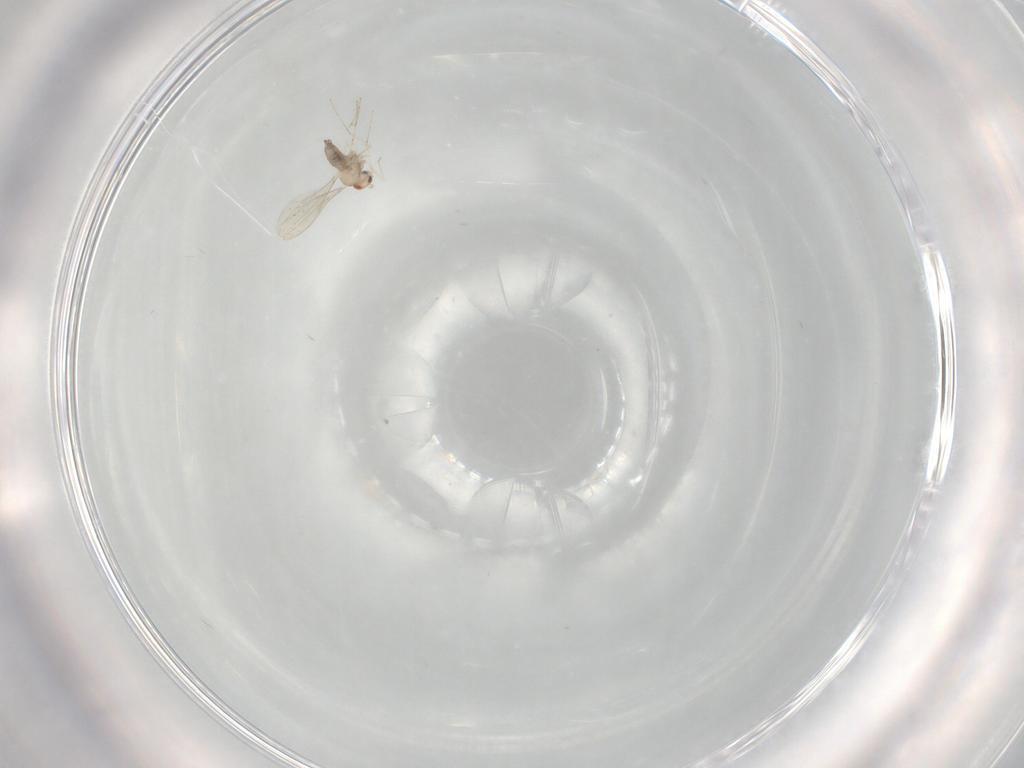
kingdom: Animalia
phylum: Arthropoda
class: Insecta
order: Diptera
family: Cecidomyiidae
